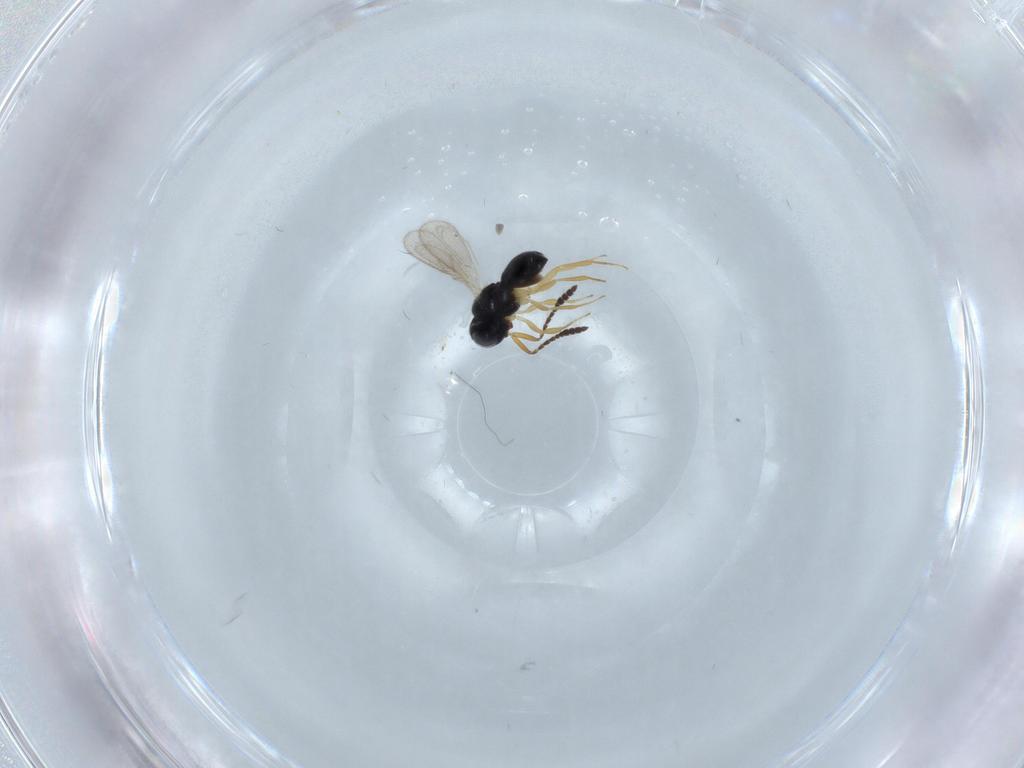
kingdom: Animalia
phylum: Arthropoda
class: Insecta
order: Hymenoptera
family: Scelionidae
